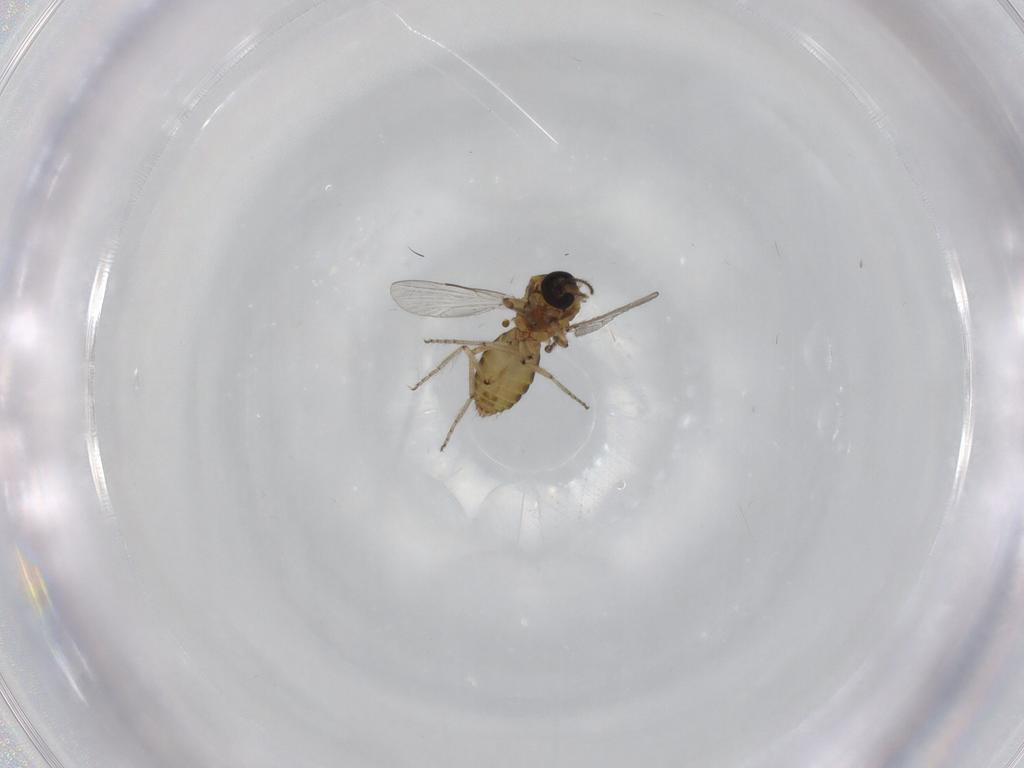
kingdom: Animalia
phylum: Arthropoda
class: Insecta
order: Diptera
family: Ceratopogonidae
